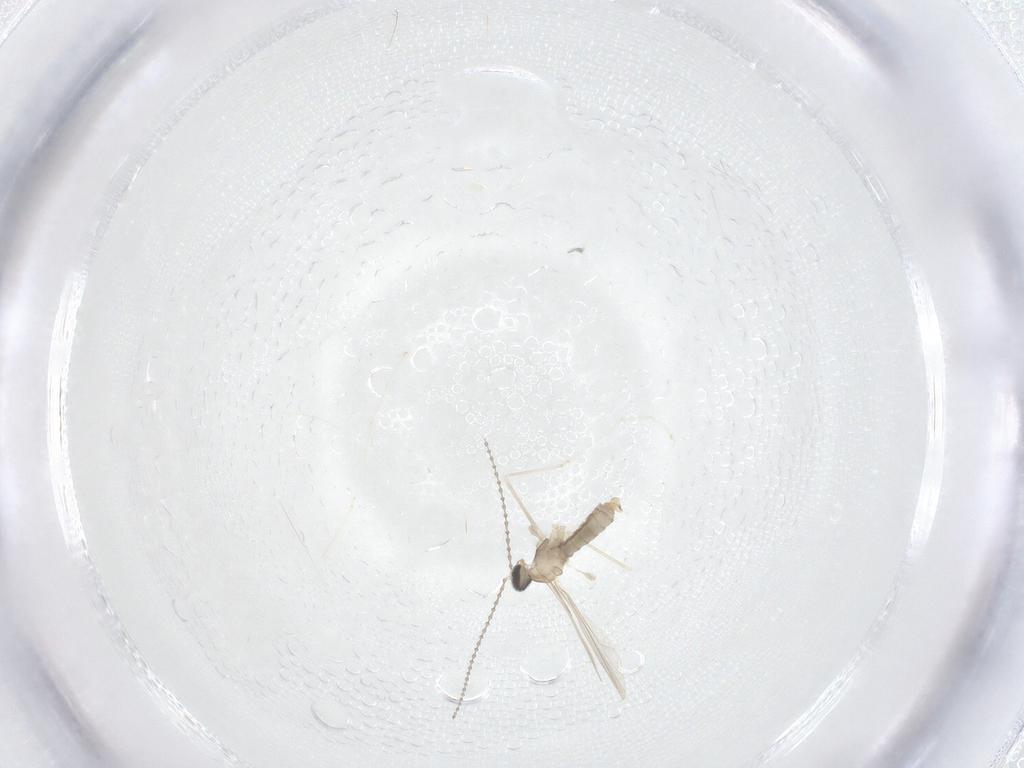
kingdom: Animalia
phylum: Arthropoda
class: Insecta
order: Diptera
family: Cecidomyiidae
